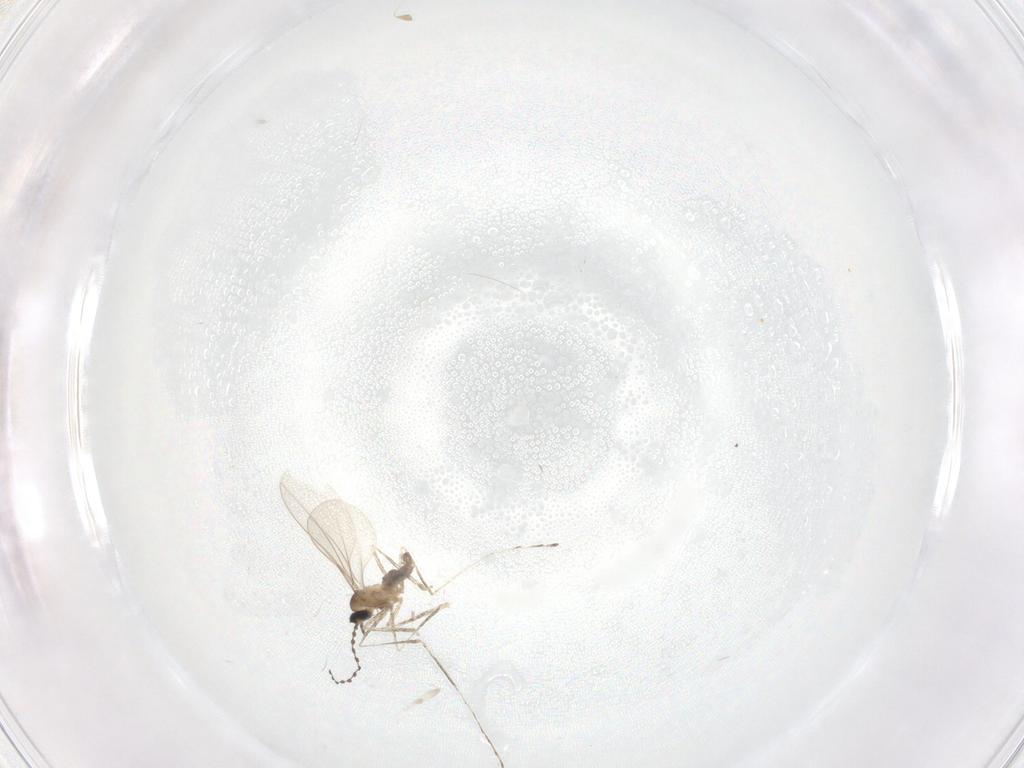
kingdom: Animalia
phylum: Arthropoda
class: Insecta
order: Diptera
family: Cecidomyiidae
